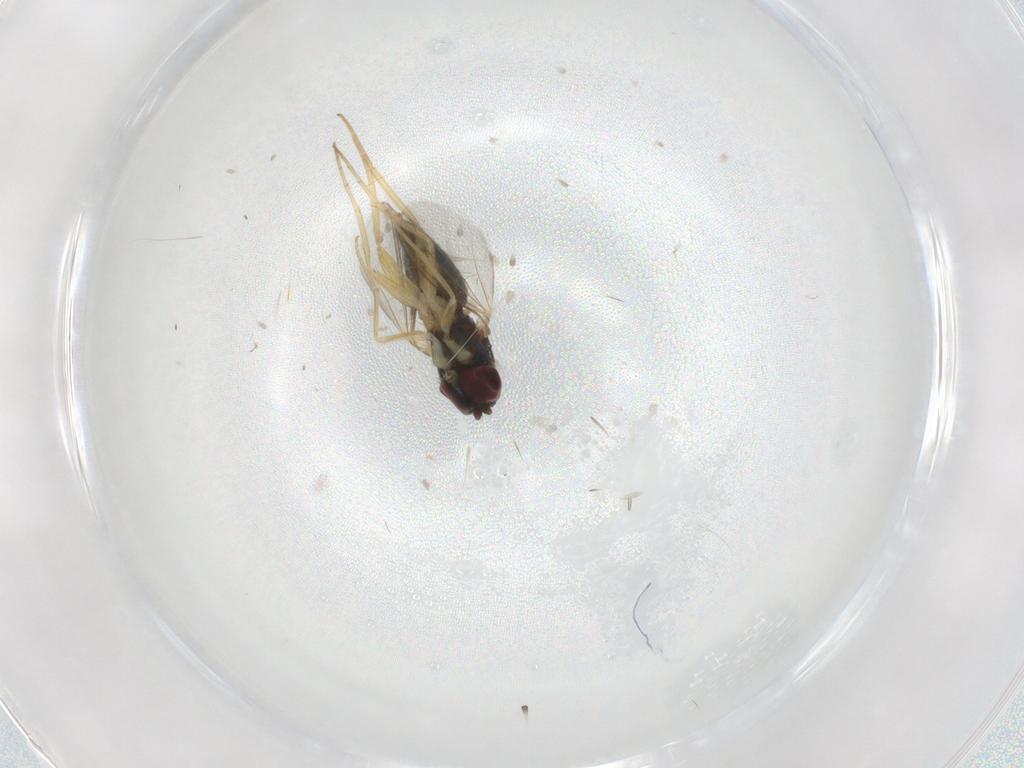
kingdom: Animalia
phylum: Arthropoda
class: Insecta
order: Diptera
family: Dolichopodidae
